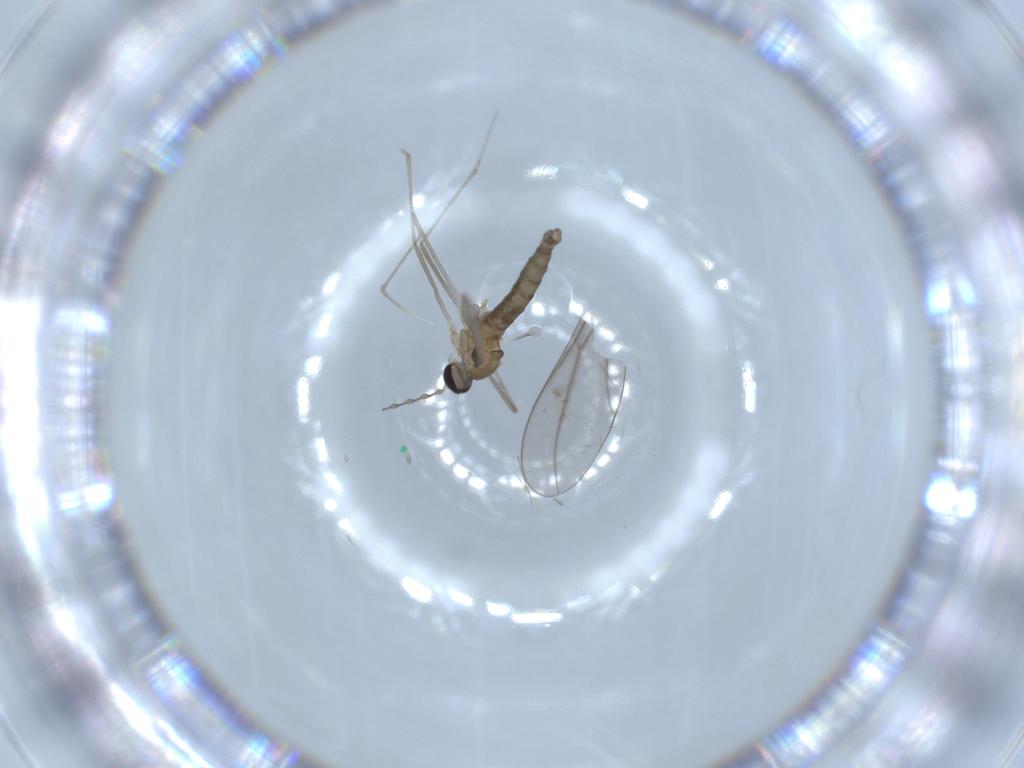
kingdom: Animalia
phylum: Arthropoda
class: Insecta
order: Diptera
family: Cecidomyiidae
